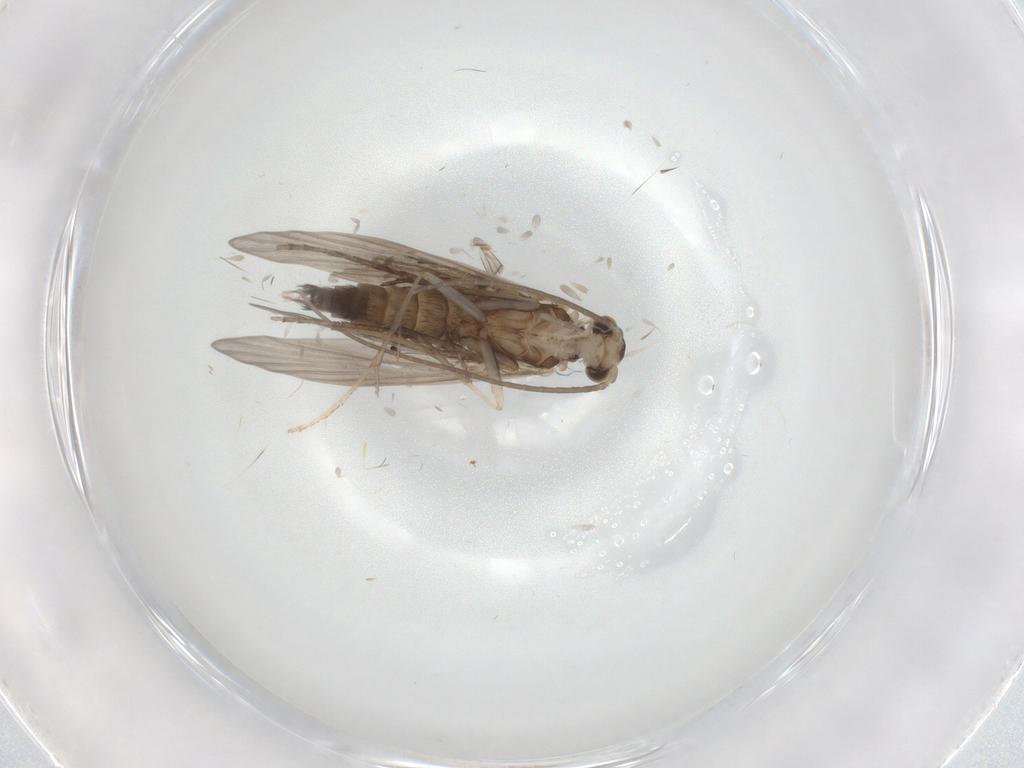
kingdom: Animalia
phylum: Arthropoda
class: Insecta
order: Trichoptera
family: Xiphocentronidae
